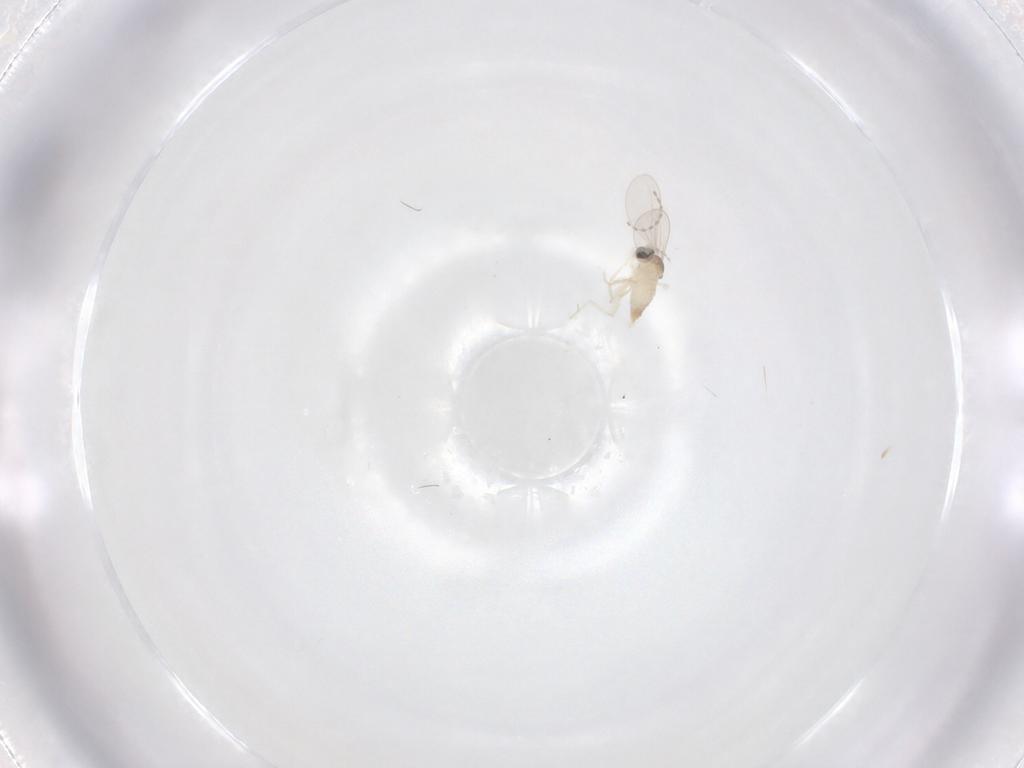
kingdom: Animalia
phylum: Arthropoda
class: Insecta
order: Diptera
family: Cecidomyiidae
